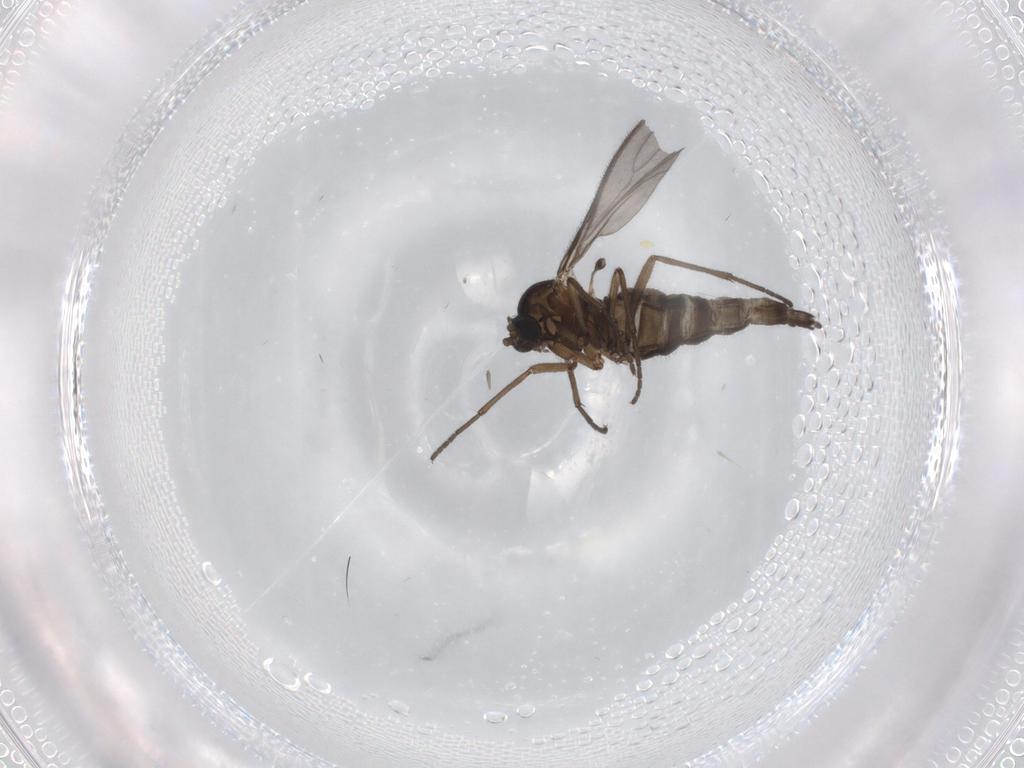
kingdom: Animalia
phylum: Arthropoda
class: Insecta
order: Diptera
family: Sciaridae
